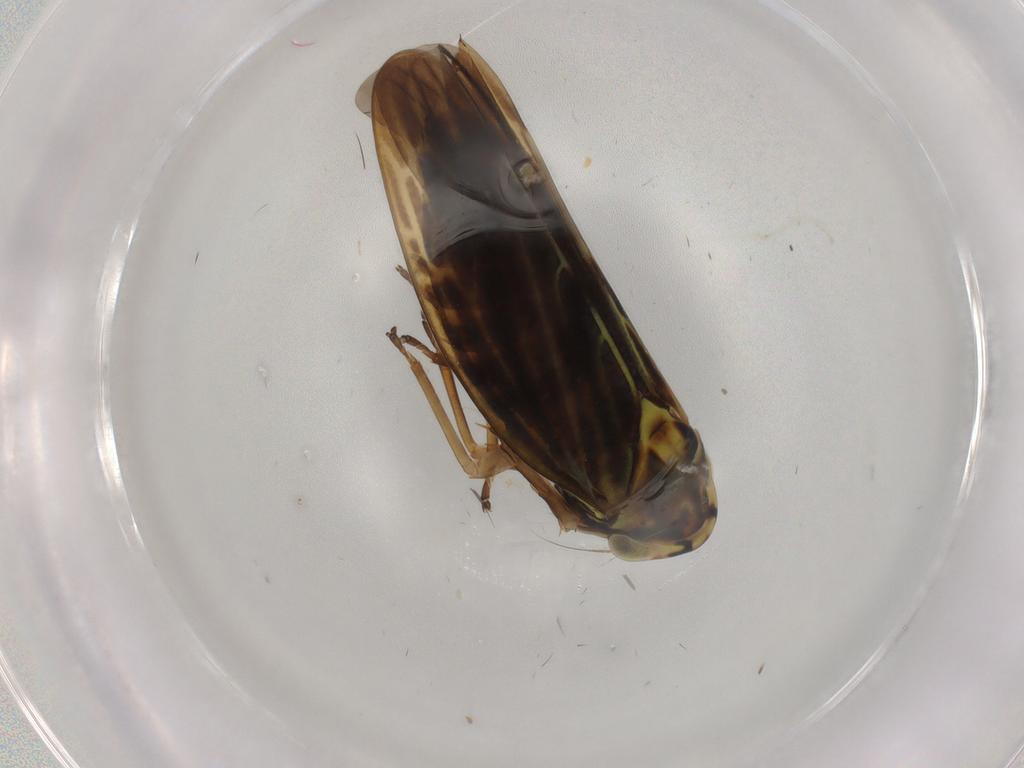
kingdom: Animalia
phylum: Arthropoda
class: Insecta
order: Hemiptera
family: Cicadellidae
